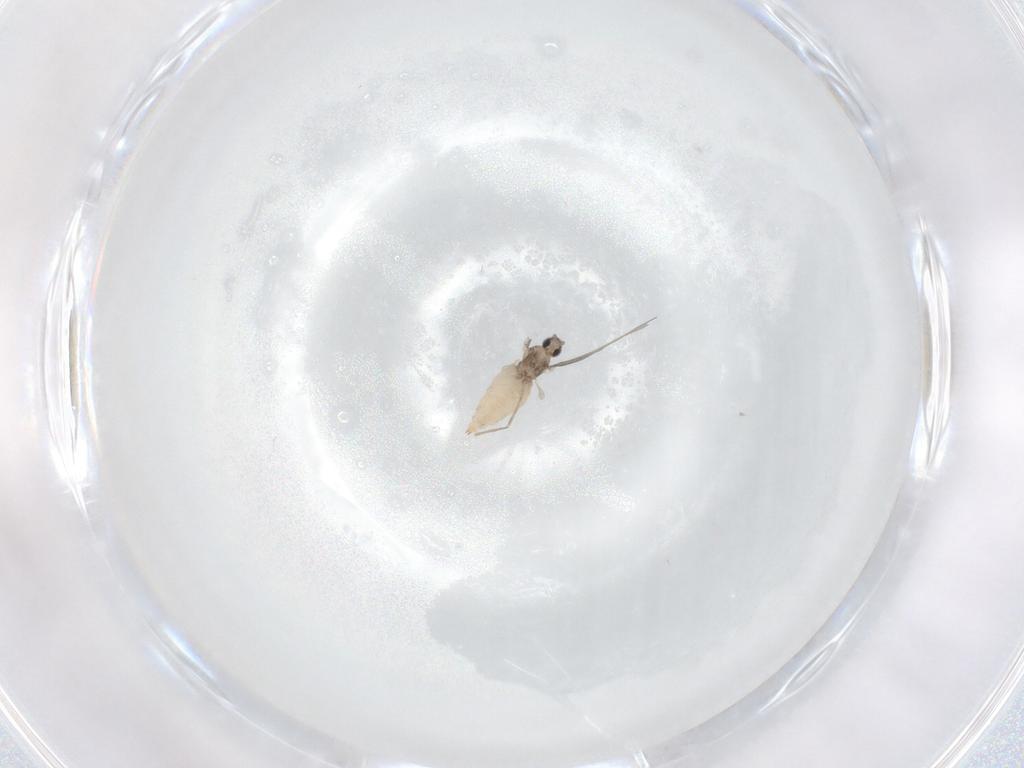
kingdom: Animalia
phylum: Arthropoda
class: Insecta
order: Diptera
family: Cecidomyiidae
